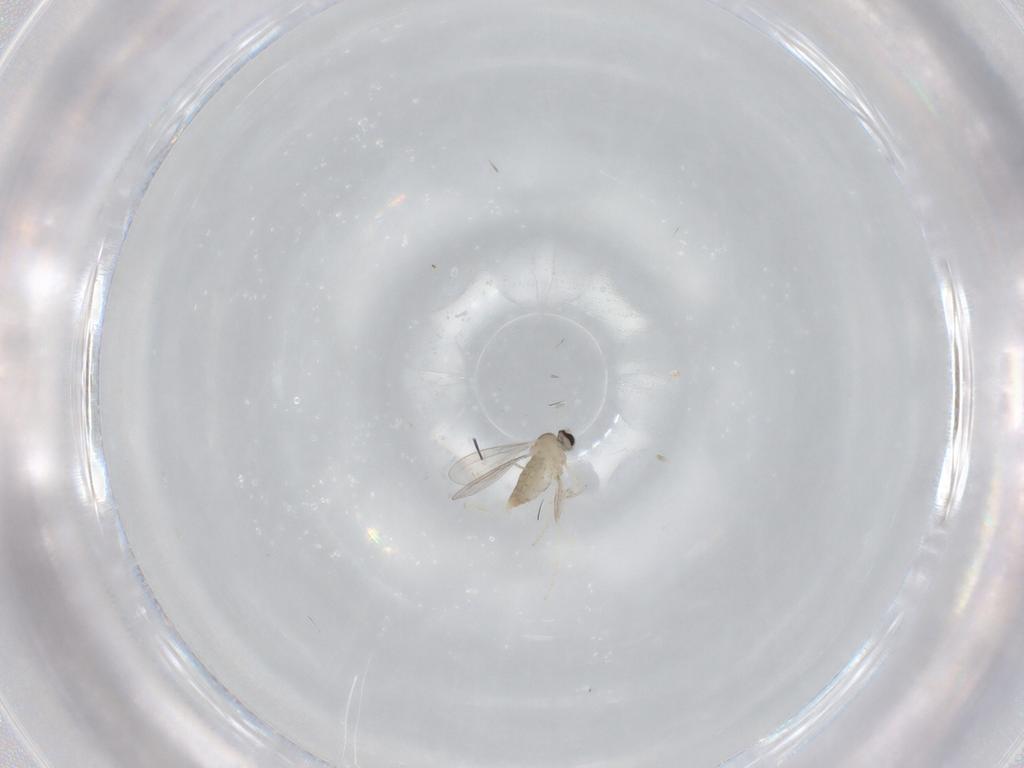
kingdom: Animalia
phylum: Arthropoda
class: Insecta
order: Diptera
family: Cecidomyiidae
